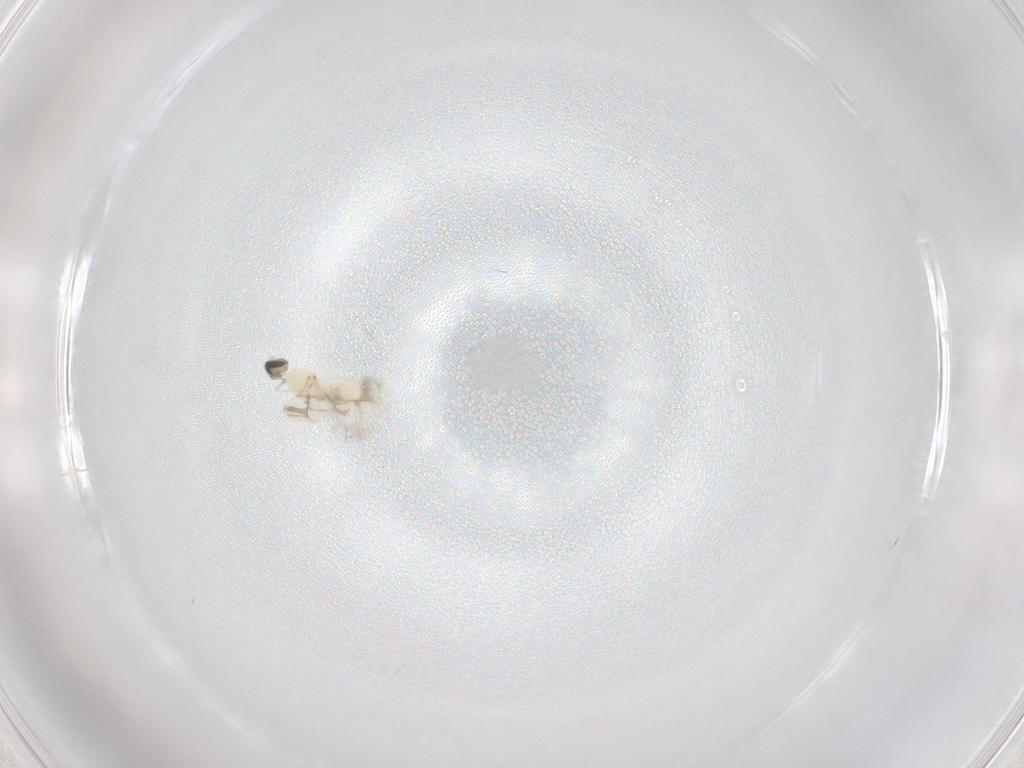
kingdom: Animalia
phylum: Arthropoda
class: Insecta
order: Diptera
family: Cecidomyiidae
